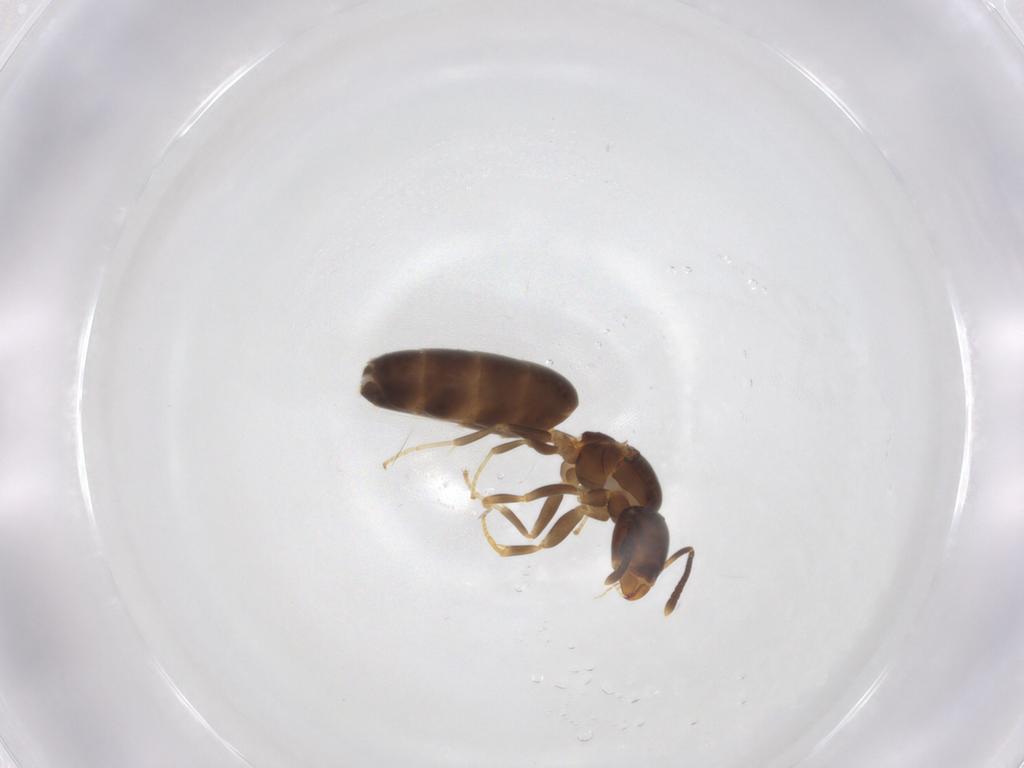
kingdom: Animalia
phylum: Arthropoda
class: Insecta
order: Hymenoptera
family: Formicidae
